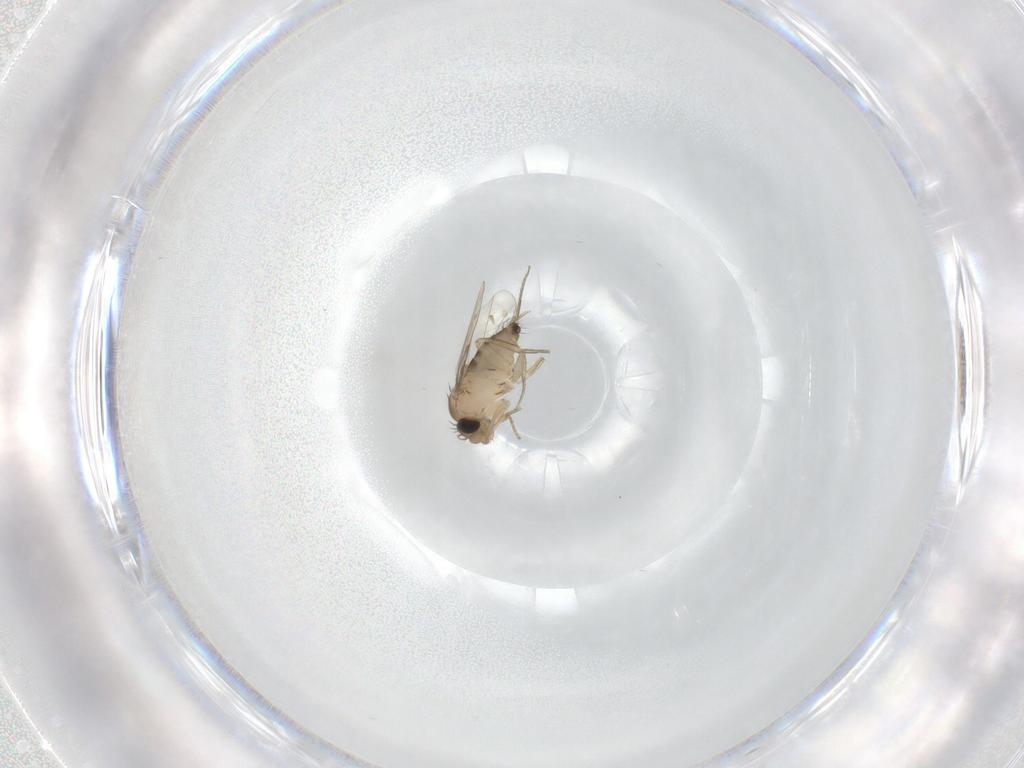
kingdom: Animalia
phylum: Arthropoda
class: Insecta
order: Diptera
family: Phoridae
